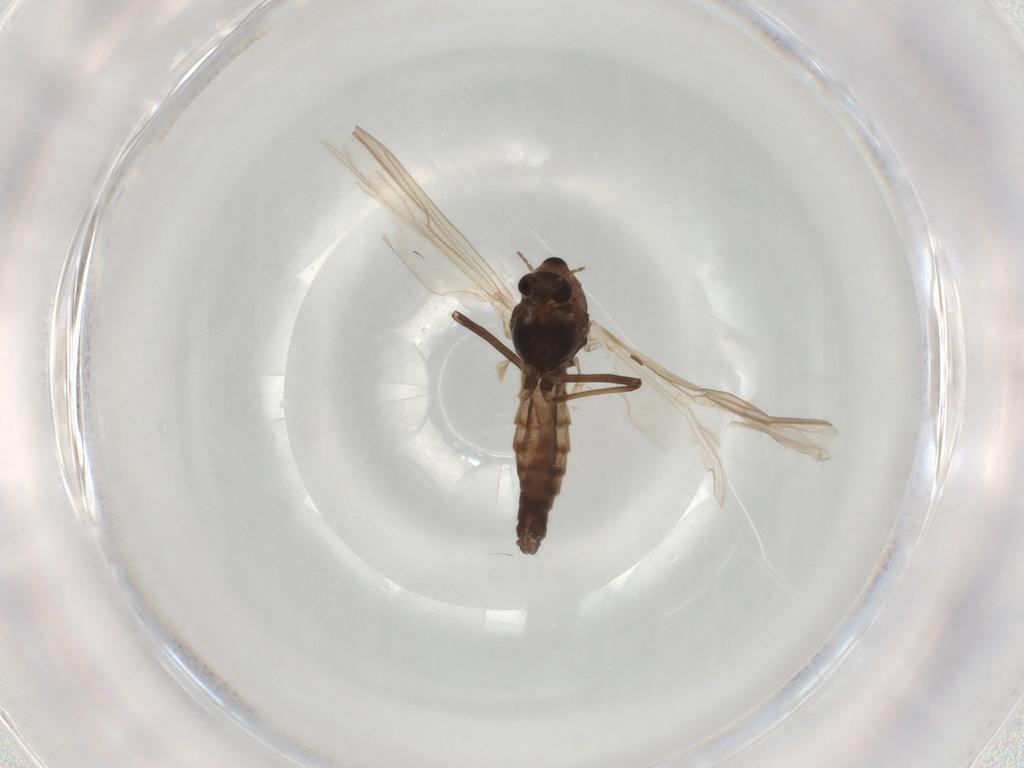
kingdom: Animalia
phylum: Arthropoda
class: Insecta
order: Diptera
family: Chironomidae
